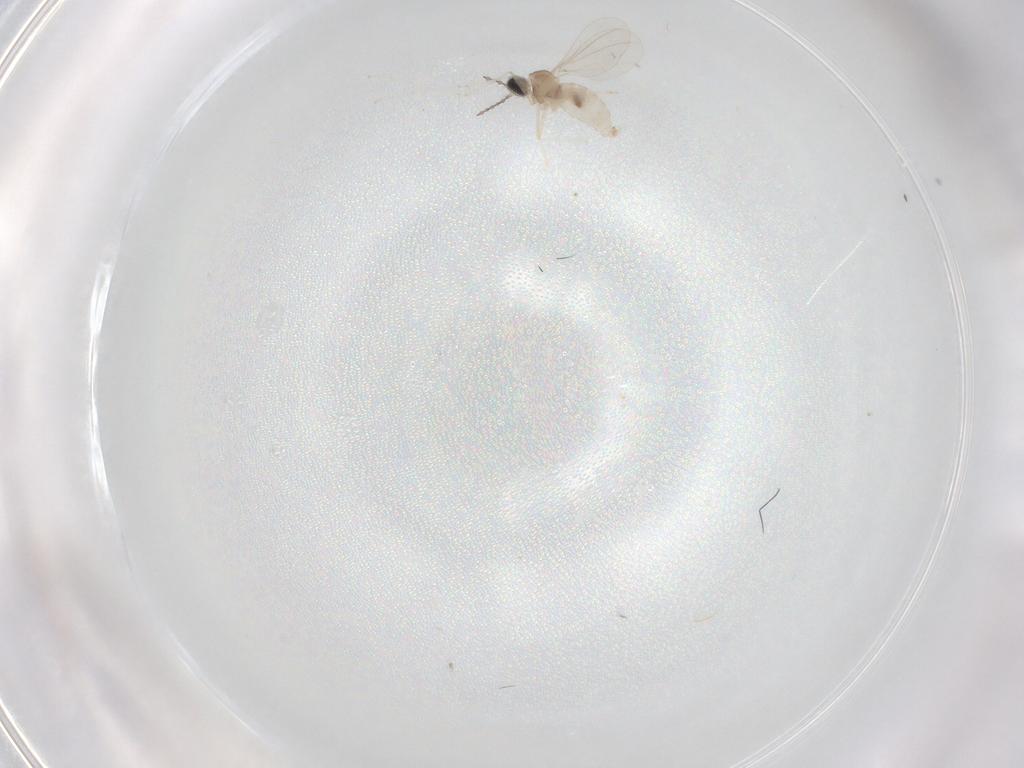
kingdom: Animalia
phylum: Arthropoda
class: Insecta
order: Diptera
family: Cecidomyiidae
